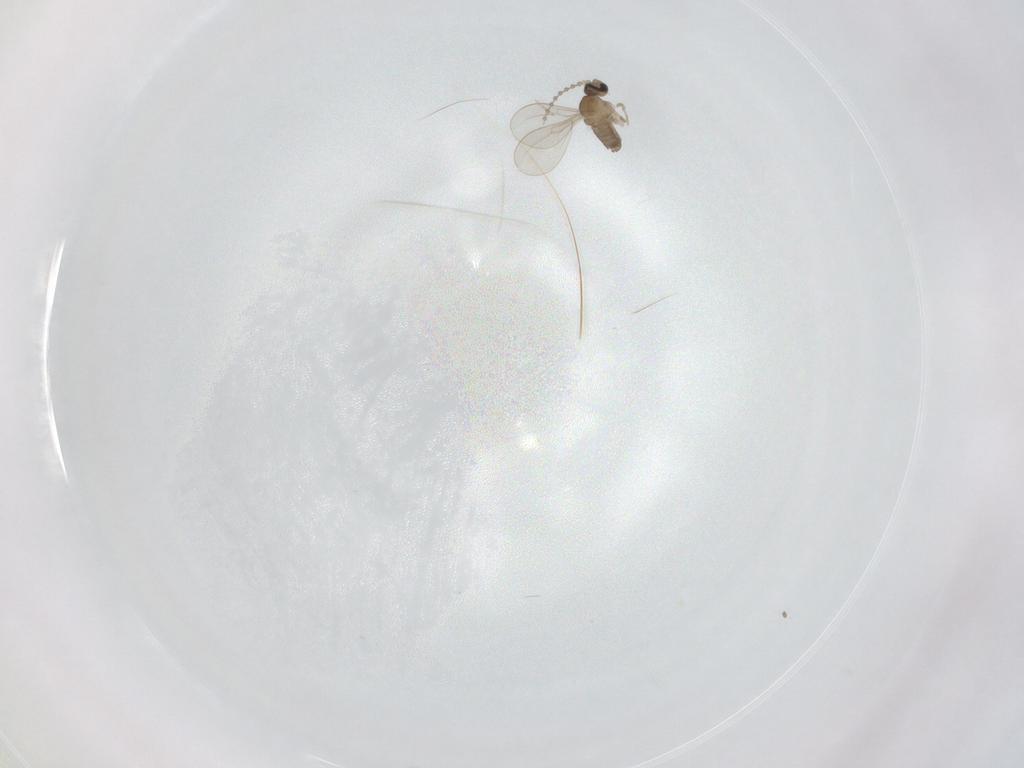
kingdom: Animalia
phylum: Arthropoda
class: Insecta
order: Diptera
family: Cecidomyiidae
